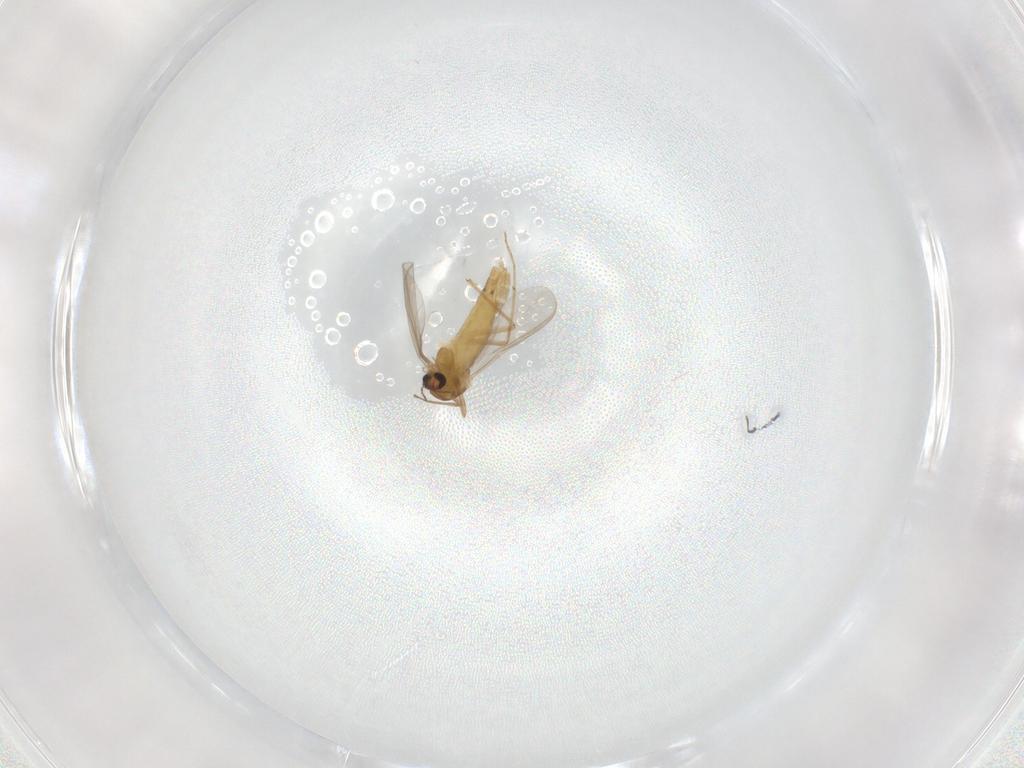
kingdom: Animalia
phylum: Arthropoda
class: Insecta
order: Diptera
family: Chironomidae
